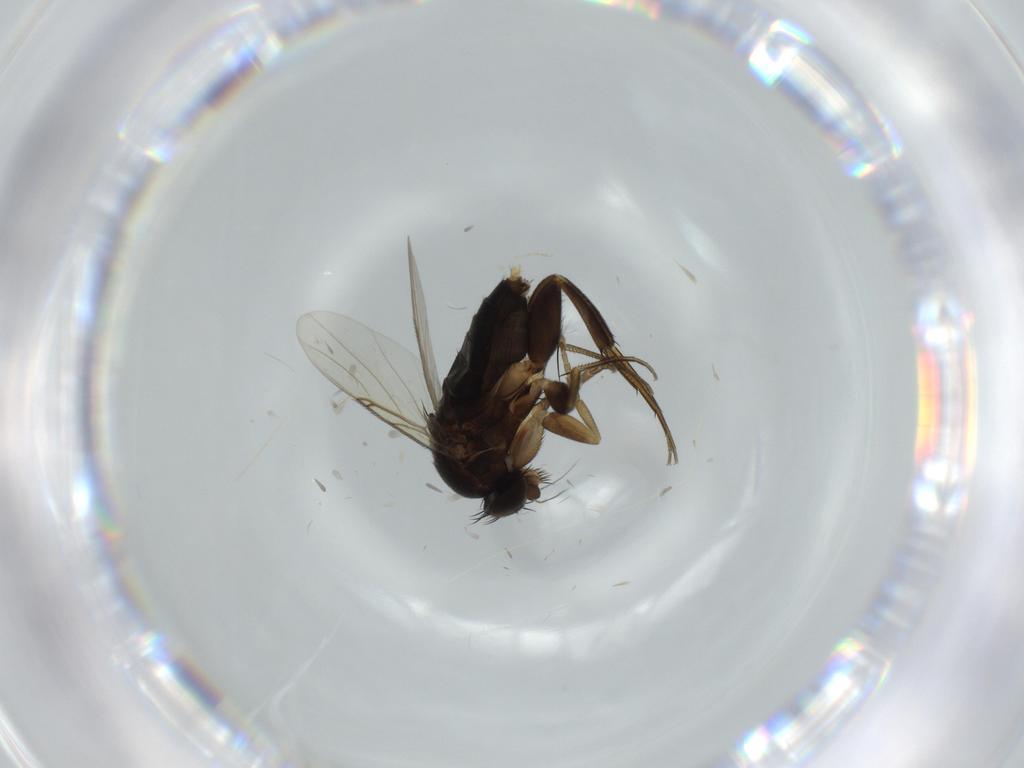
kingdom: Animalia
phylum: Arthropoda
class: Insecta
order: Diptera
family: Phoridae
